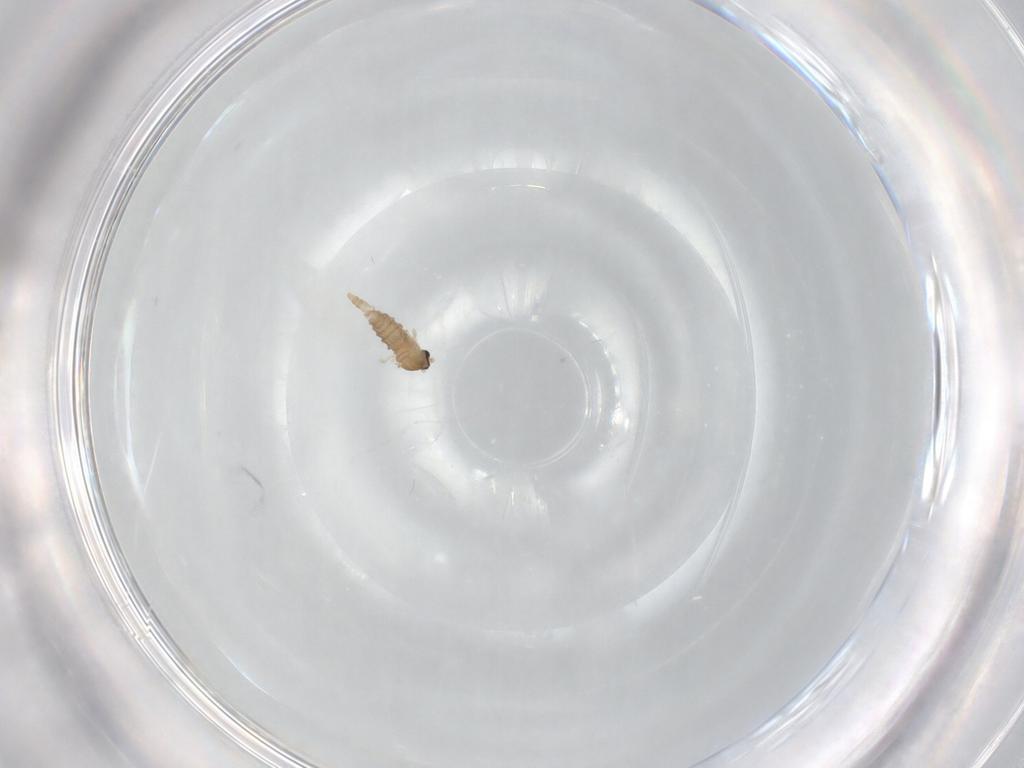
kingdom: Animalia
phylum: Arthropoda
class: Insecta
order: Diptera
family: Cecidomyiidae
